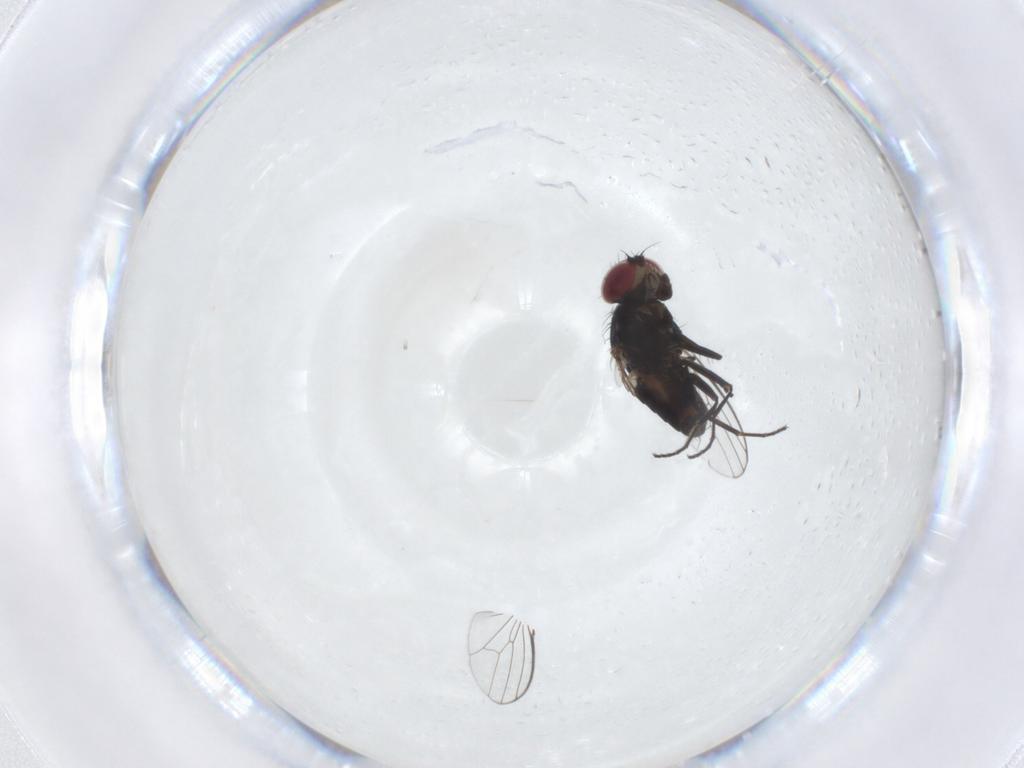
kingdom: Animalia
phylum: Arthropoda
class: Insecta
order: Diptera
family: Carnidae
